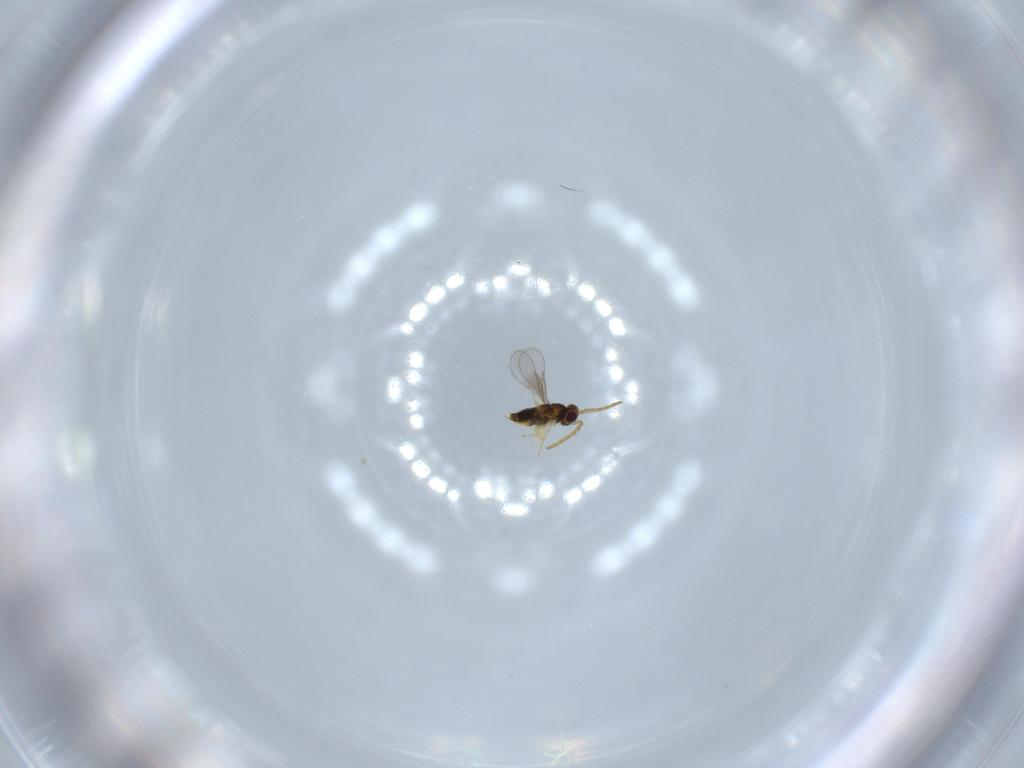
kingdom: Animalia
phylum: Arthropoda
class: Insecta
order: Hymenoptera
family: Aphelinidae
